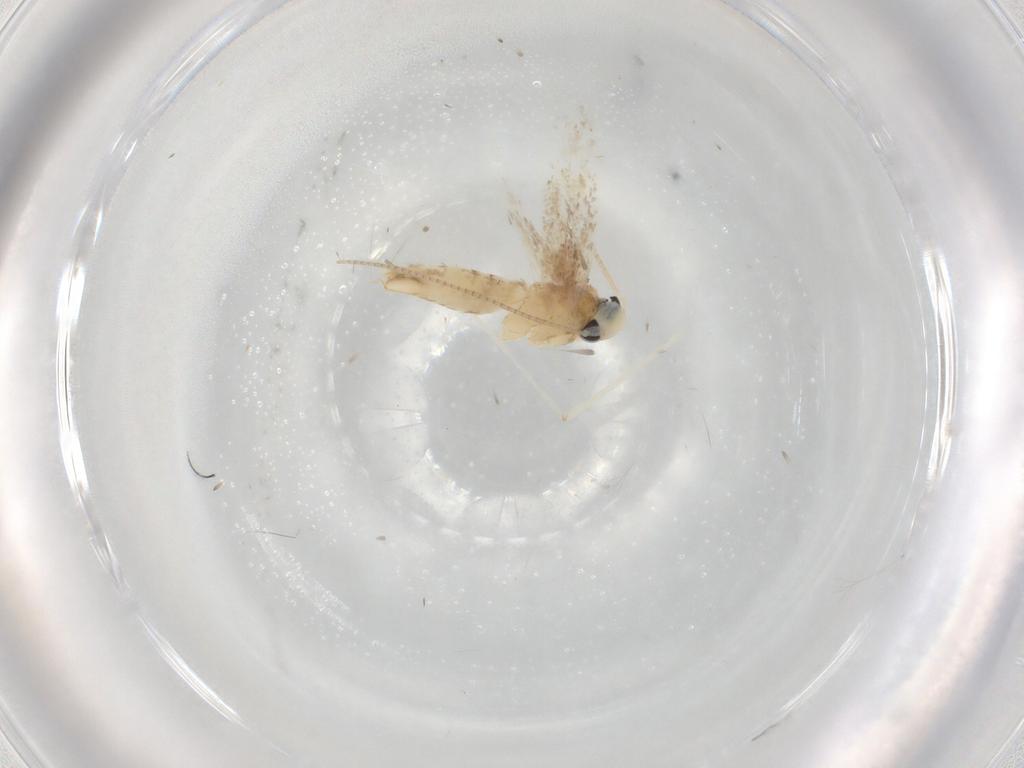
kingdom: Animalia
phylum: Arthropoda
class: Insecta
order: Lepidoptera
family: Gracillariidae
